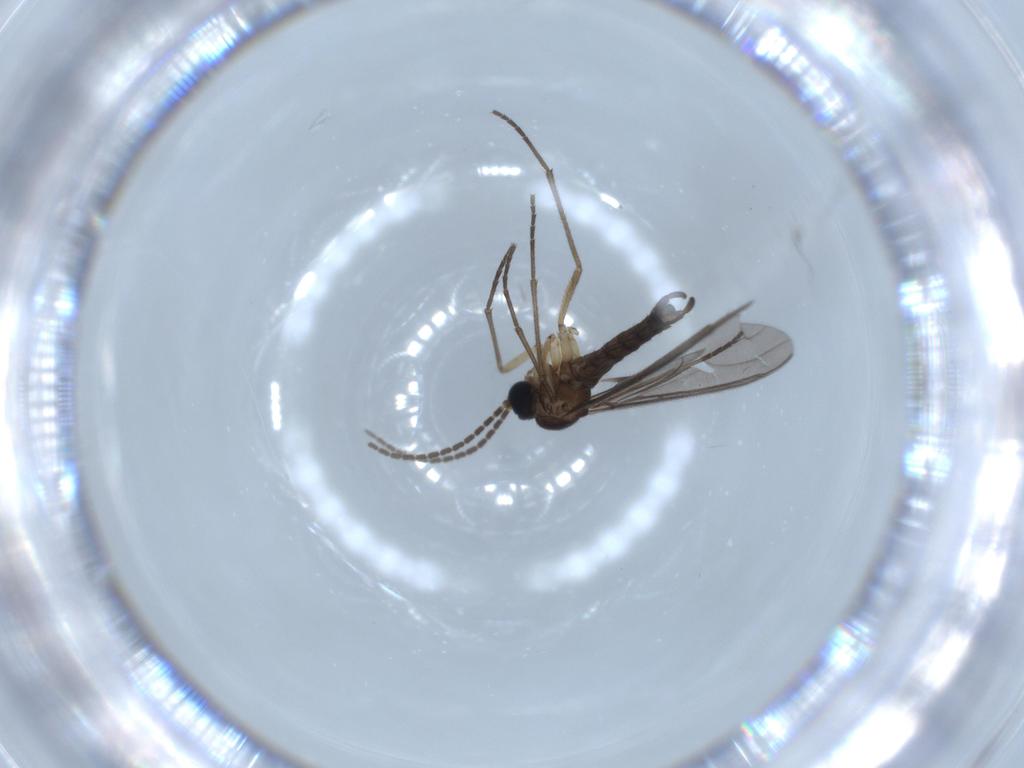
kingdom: Animalia
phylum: Arthropoda
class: Insecta
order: Diptera
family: Sciaridae
